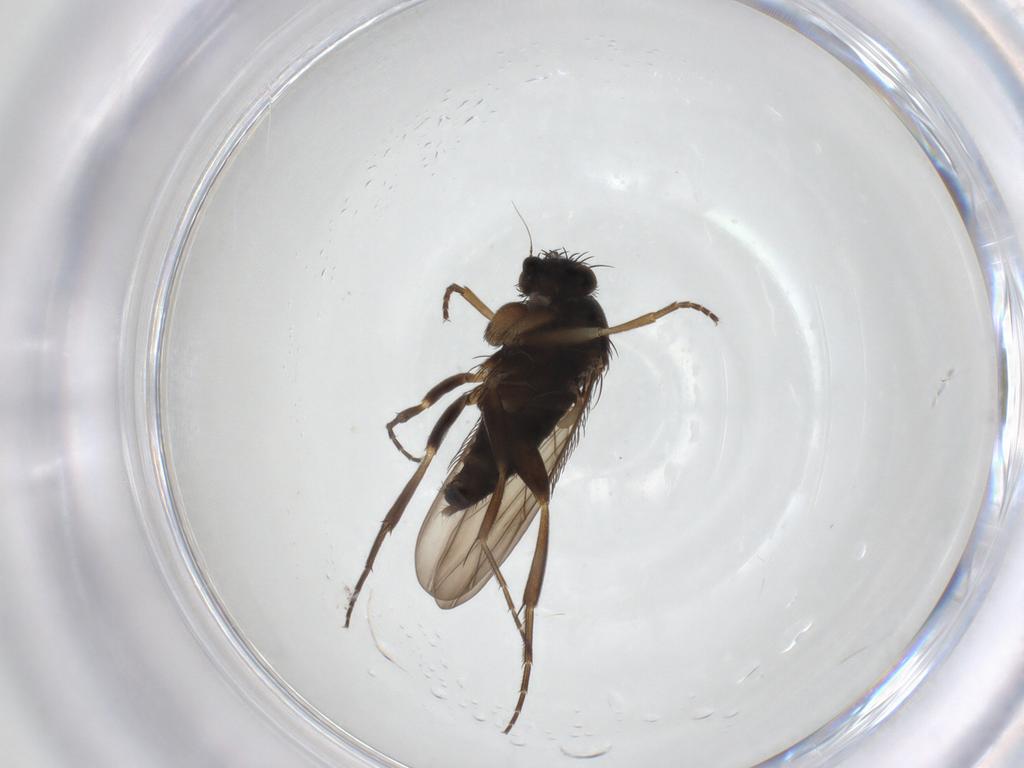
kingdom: Animalia
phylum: Arthropoda
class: Insecta
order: Diptera
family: Phoridae
